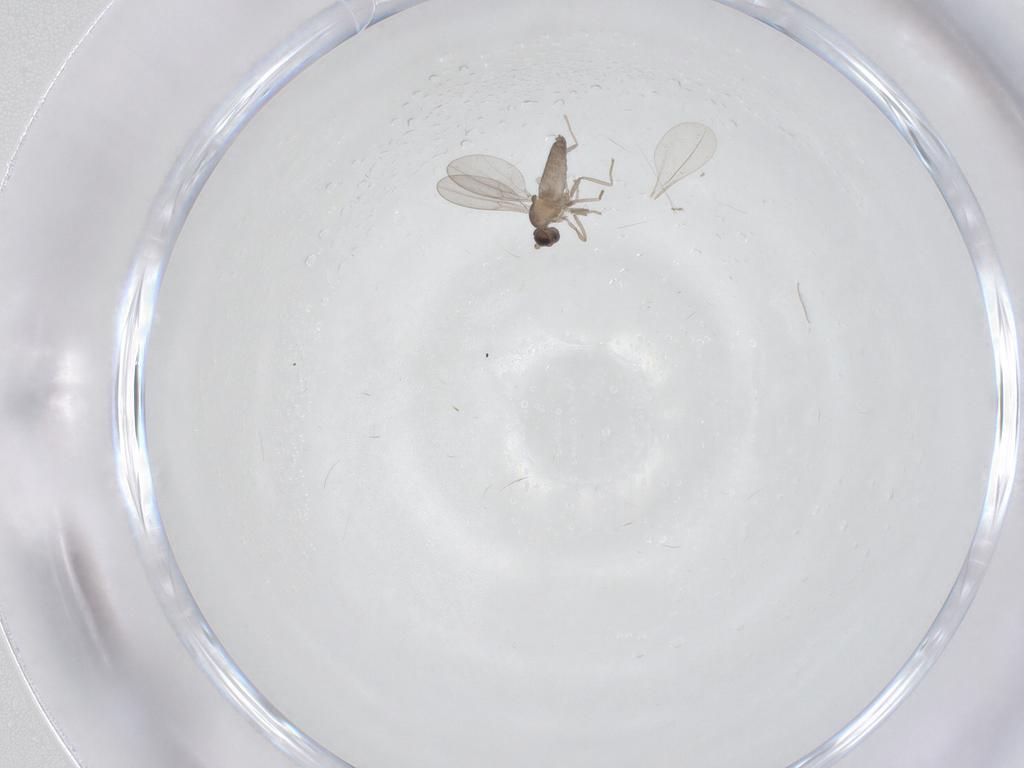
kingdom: Animalia
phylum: Arthropoda
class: Insecta
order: Diptera
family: Cecidomyiidae
